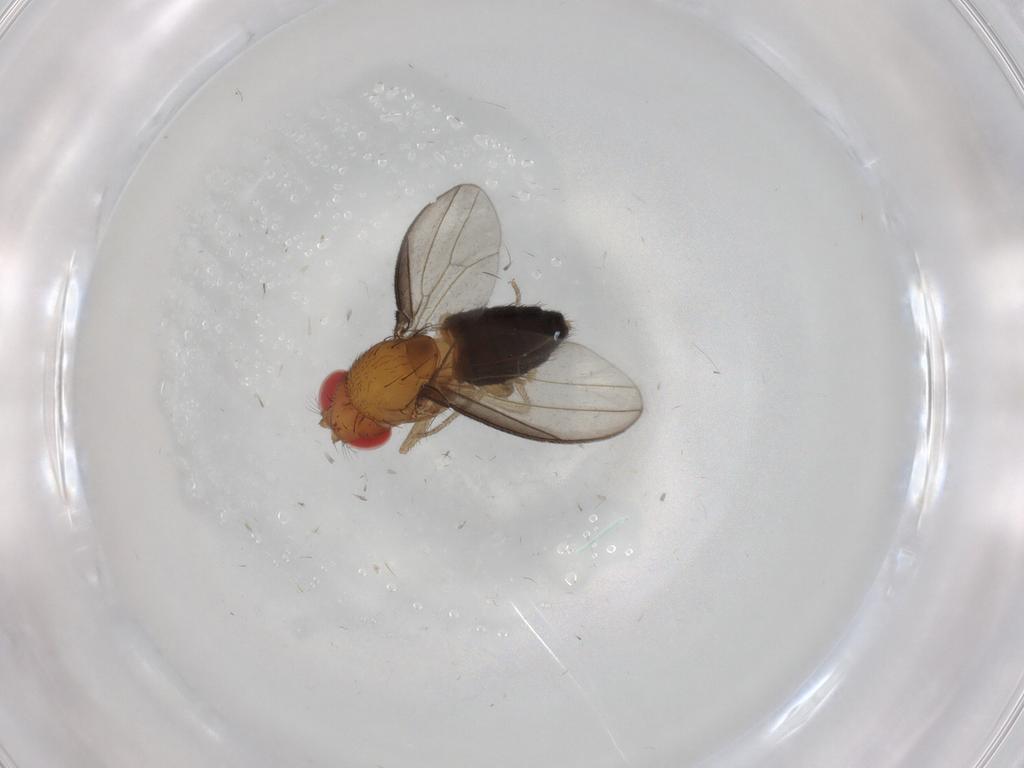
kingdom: Animalia
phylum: Arthropoda
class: Insecta
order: Diptera
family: Drosophilidae
